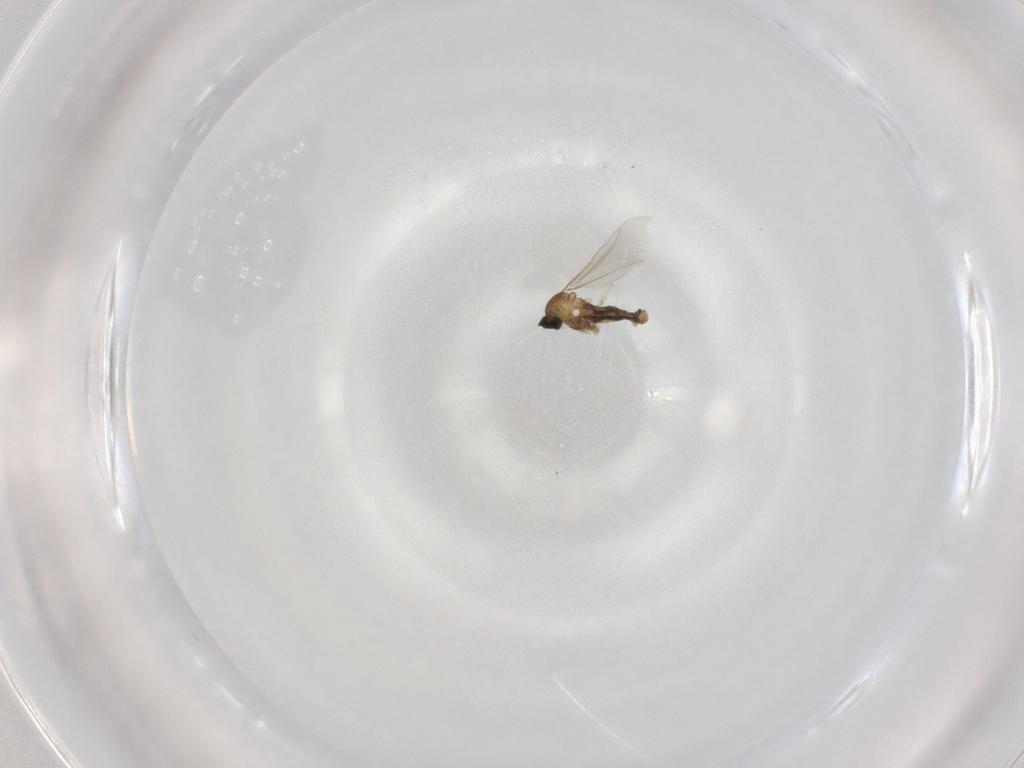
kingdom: Animalia
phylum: Arthropoda
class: Insecta
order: Diptera
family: Cecidomyiidae
